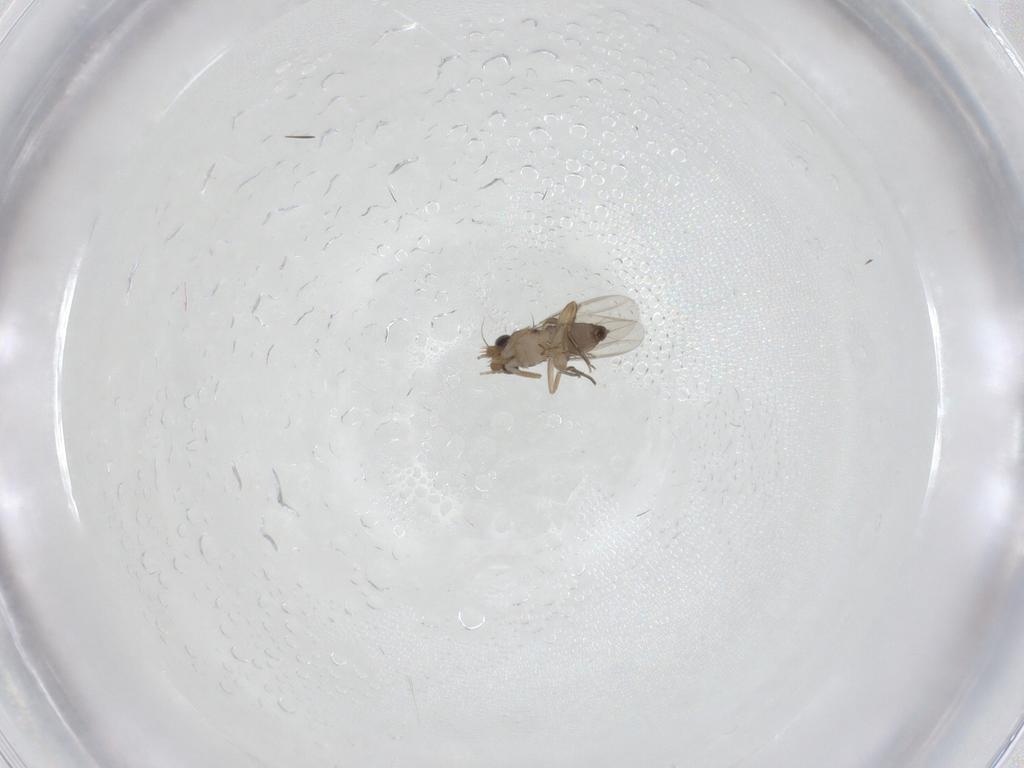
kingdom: Animalia
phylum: Arthropoda
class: Insecta
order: Diptera
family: Phoridae
